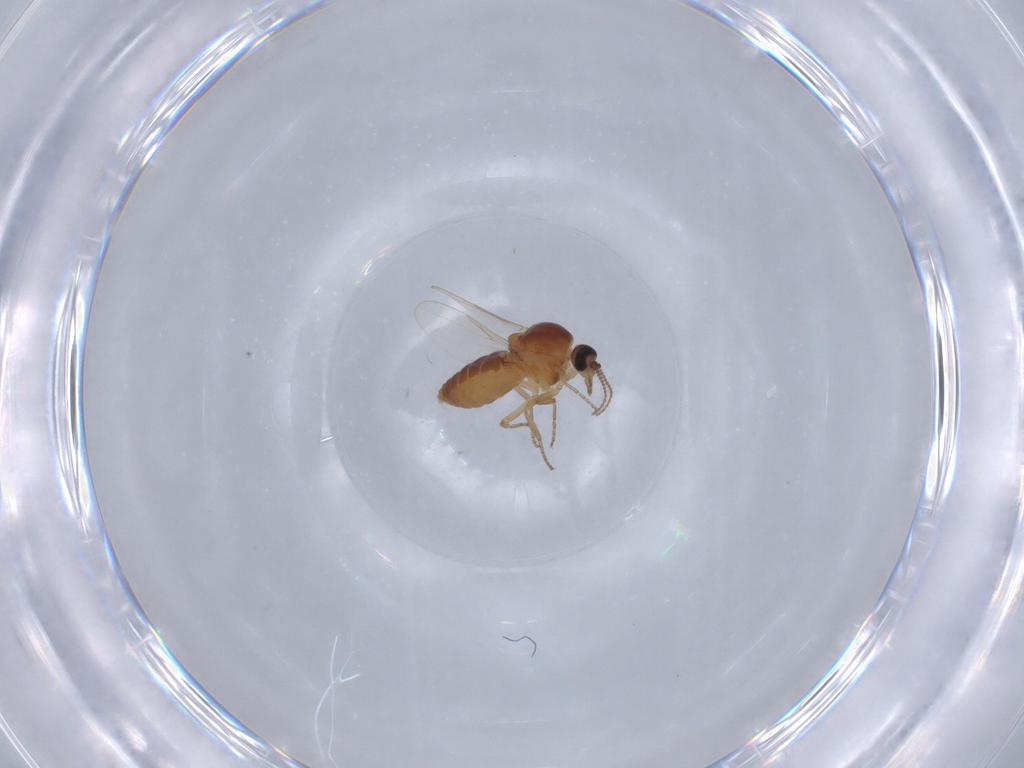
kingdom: Animalia
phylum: Arthropoda
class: Insecta
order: Diptera
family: Ceratopogonidae
